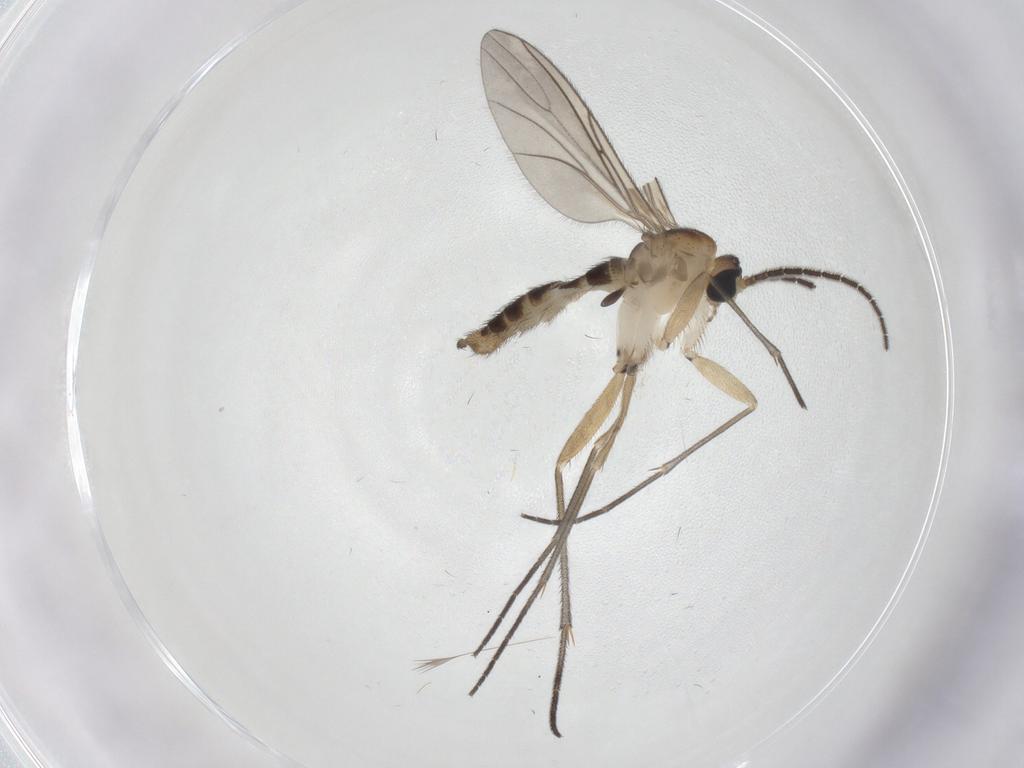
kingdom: Animalia
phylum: Arthropoda
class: Insecta
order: Diptera
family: Sciaridae
